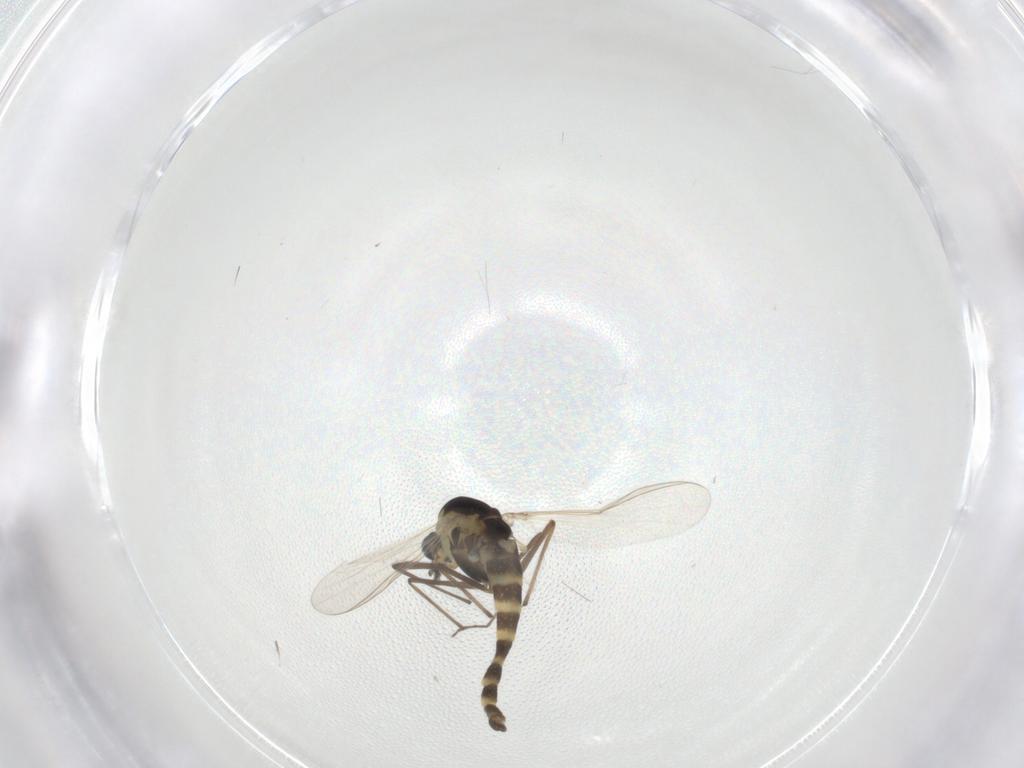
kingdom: Animalia
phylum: Arthropoda
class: Insecta
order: Diptera
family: Chironomidae
